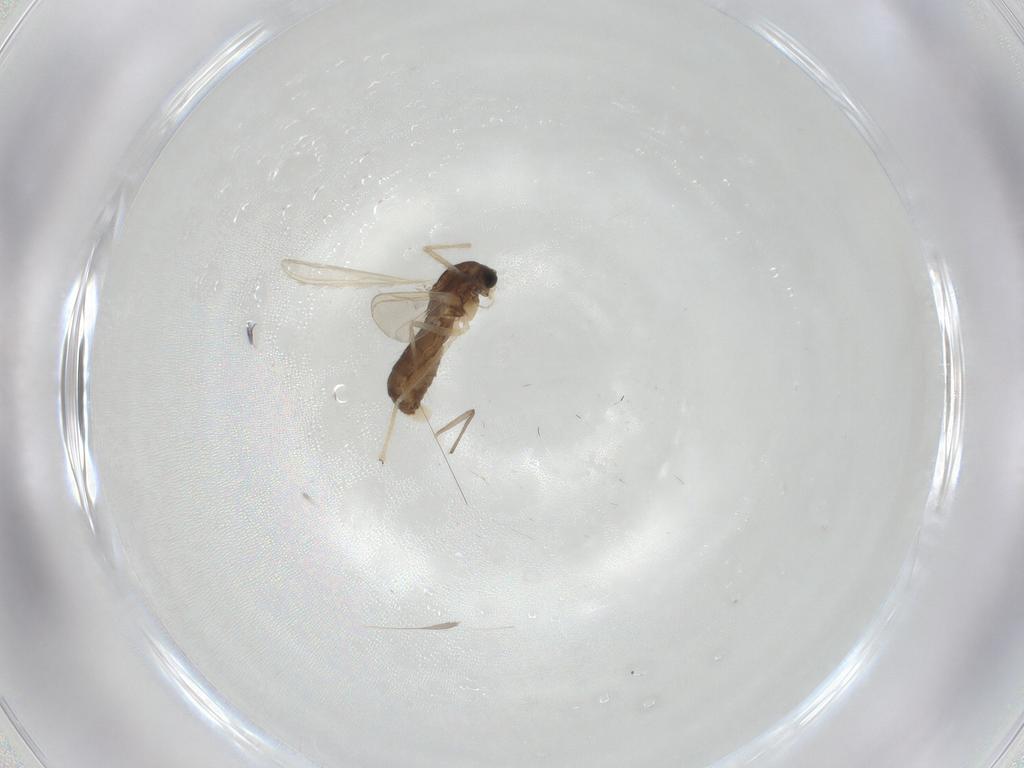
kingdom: Animalia
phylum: Arthropoda
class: Insecta
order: Diptera
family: Chironomidae
